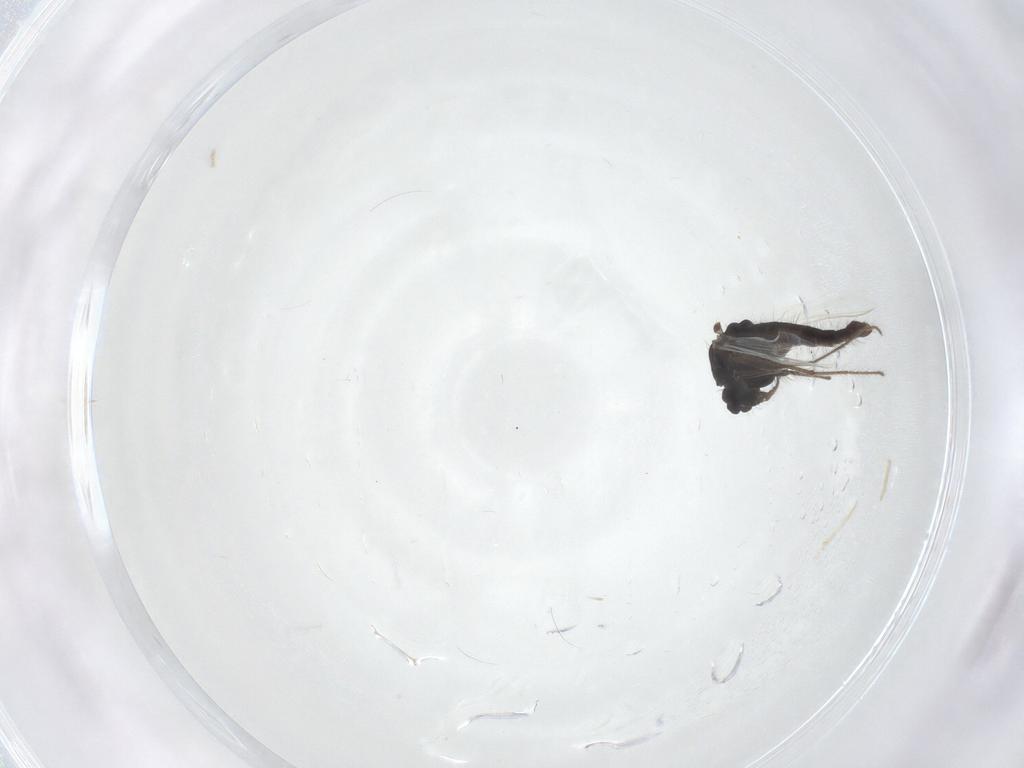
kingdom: Animalia
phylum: Arthropoda
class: Insecta
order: Diptera
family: Chironomidae
